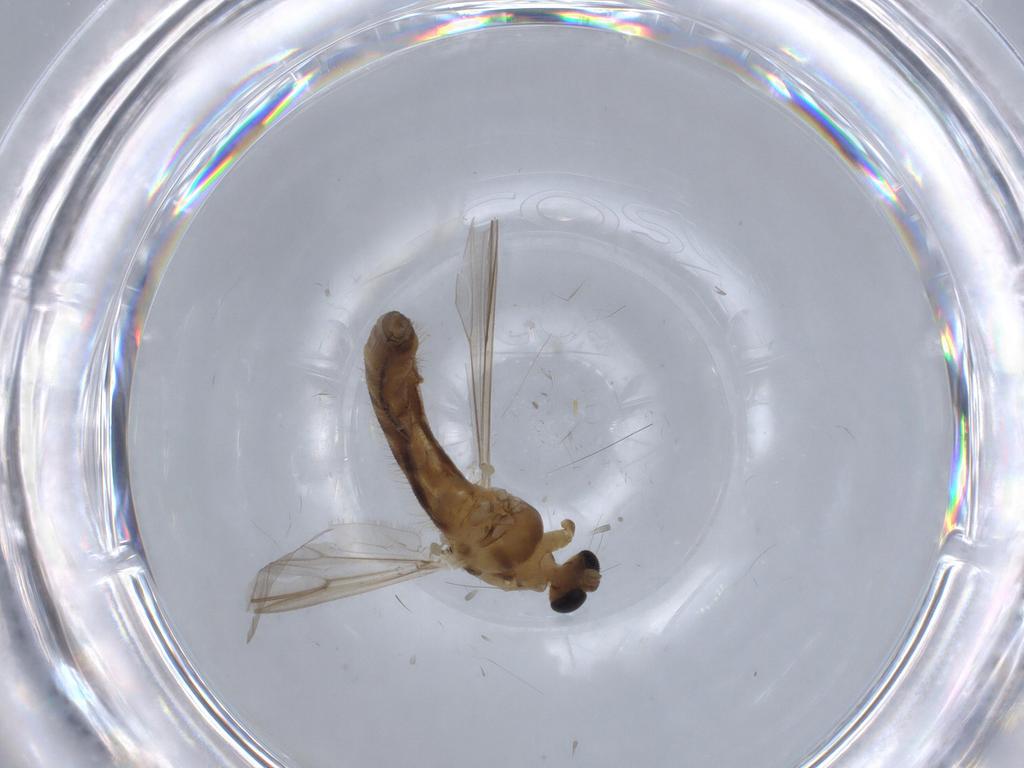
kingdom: Animalia
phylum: Arthropoda
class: Insecta
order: Diptera
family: Chironomidae
